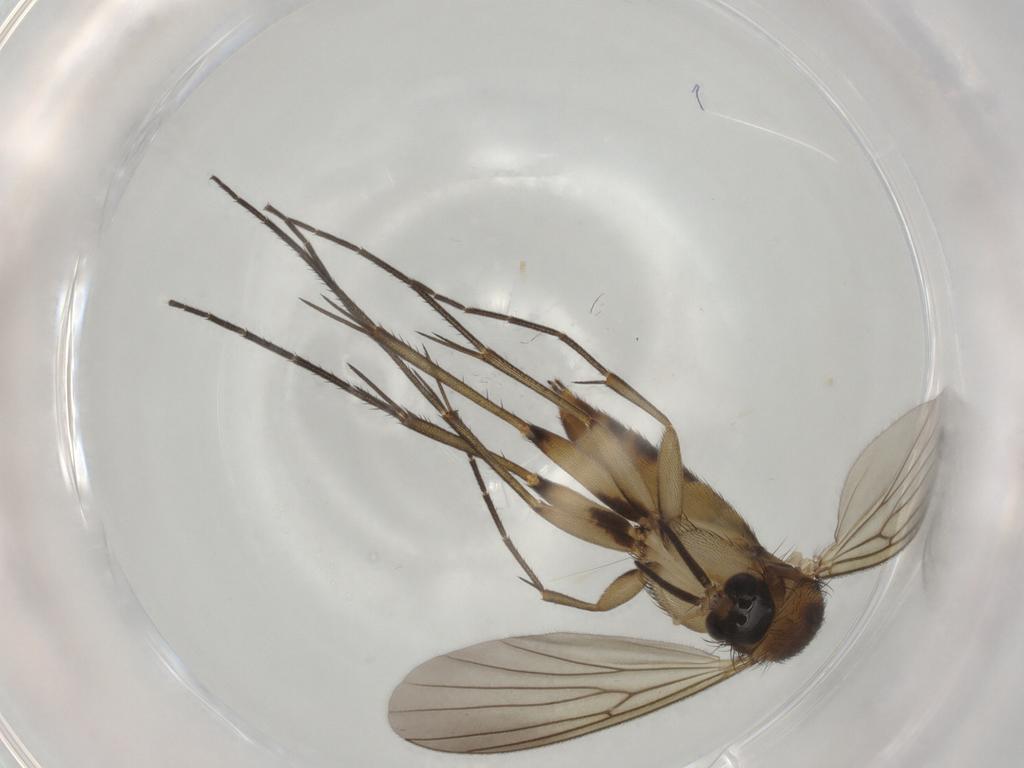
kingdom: Animalia
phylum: Arthropoda
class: Insecta
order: Diptera
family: Mycetophilidae
